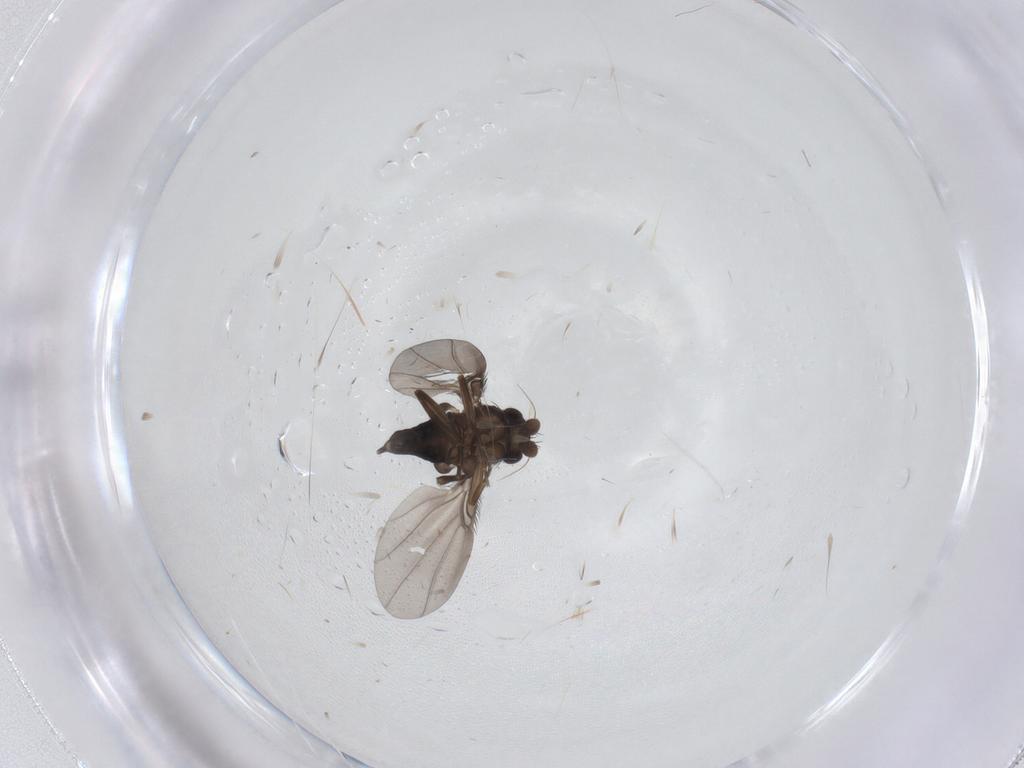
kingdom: Animalia
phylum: Arthropoda
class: Insecta
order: Diptera
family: Phoridae
